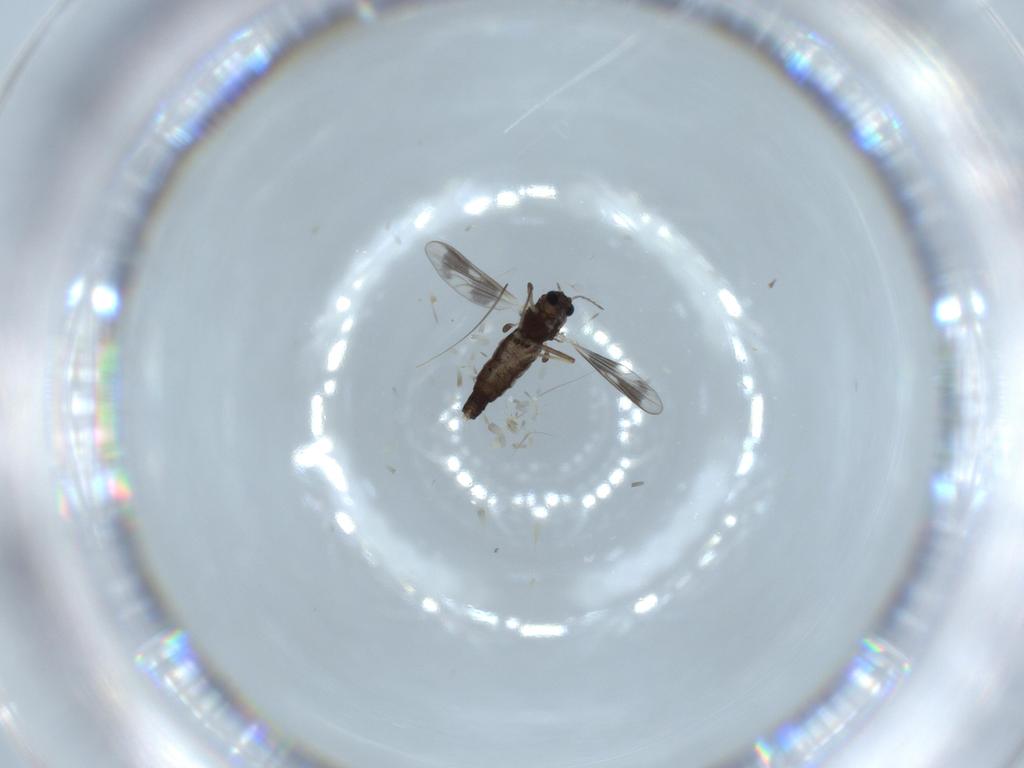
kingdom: Animalia
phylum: Arthropoda
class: Insecta
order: Diptera
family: Chironomidae
